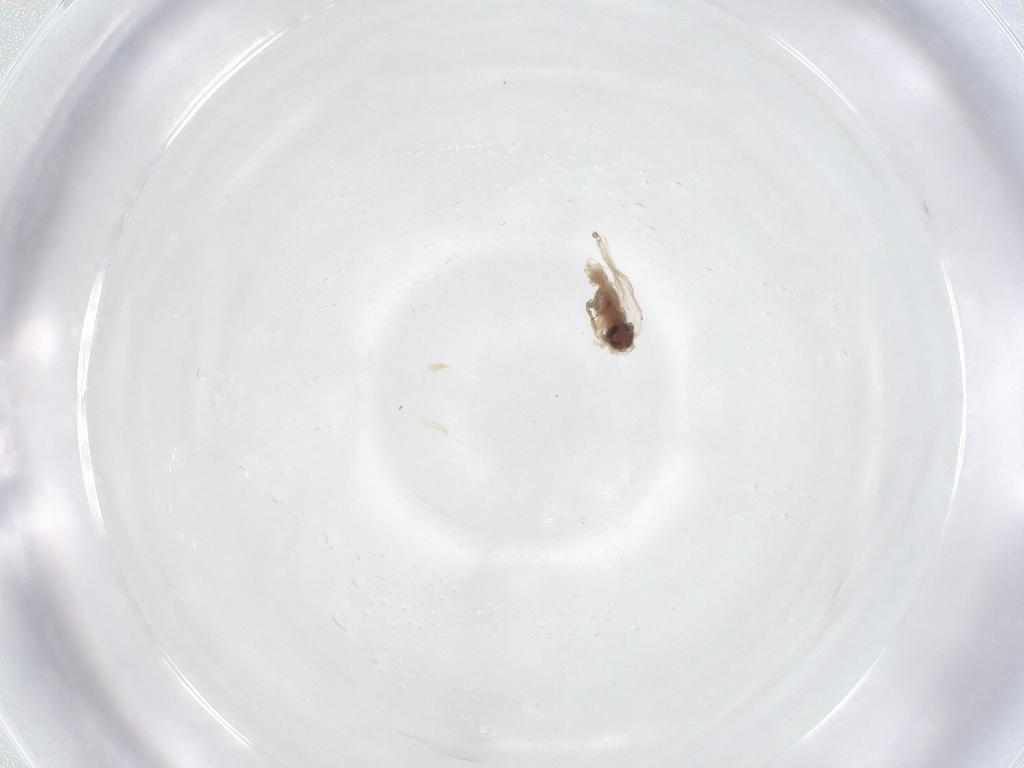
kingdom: Animalia
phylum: Arthropoda
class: Insecta
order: Diptera
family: Psychodidae
